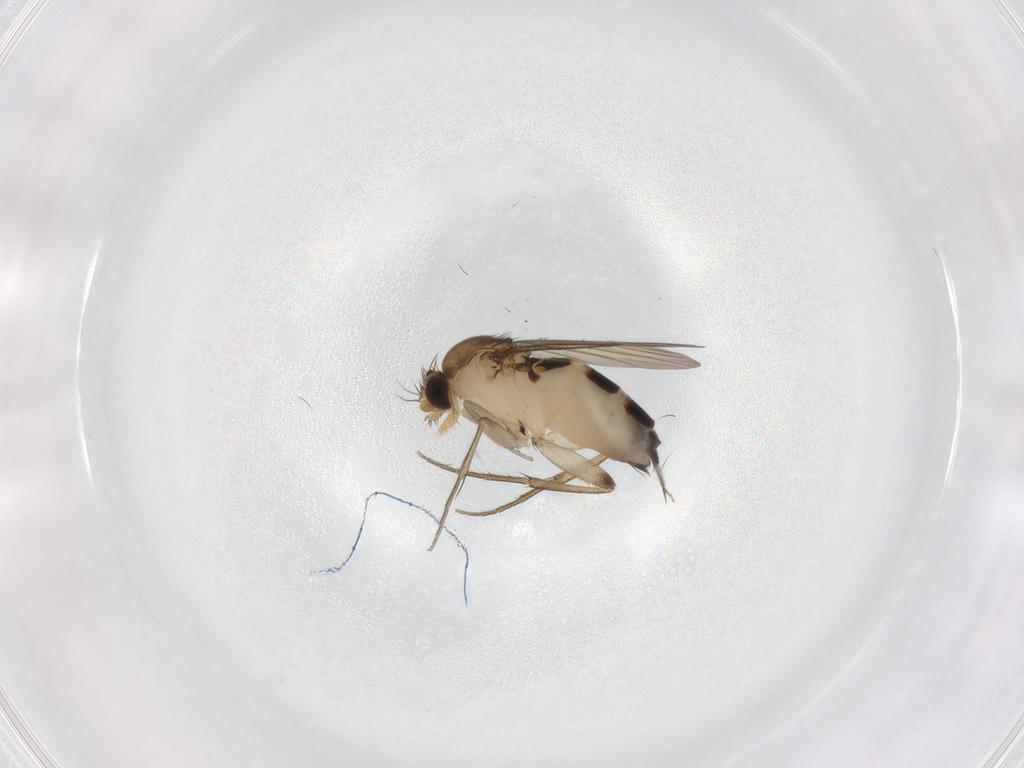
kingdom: Animalia
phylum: Arthropoda
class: Insecta
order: Diptera
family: Phoridae
